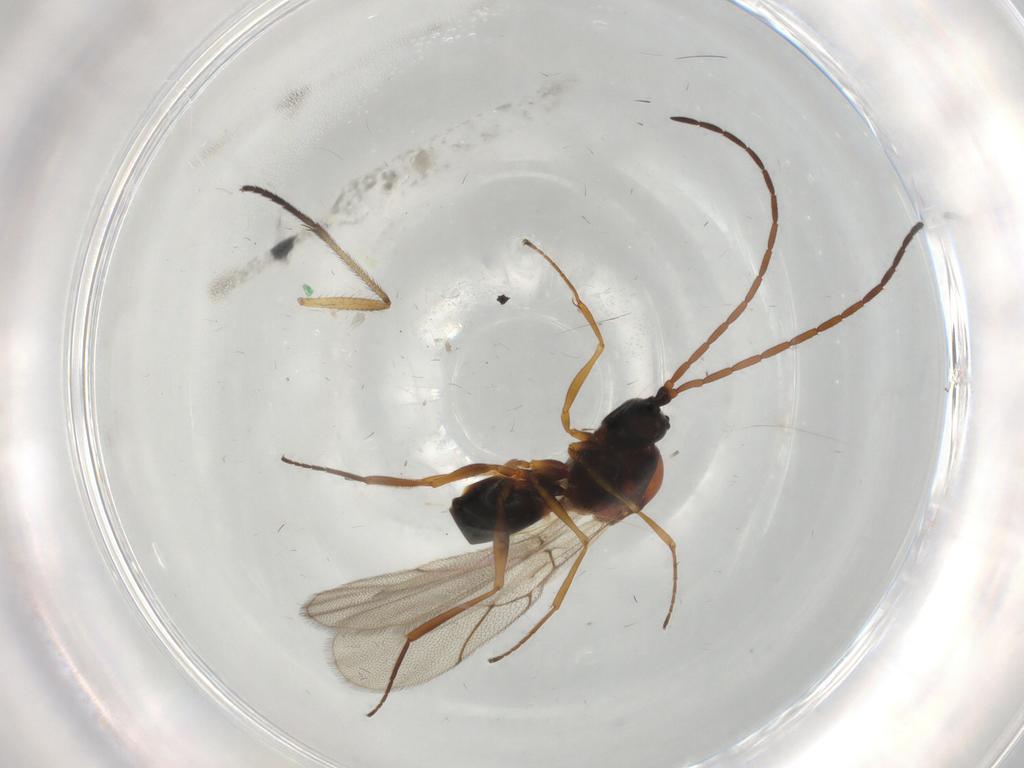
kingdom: Animalia
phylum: Arthropoda
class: Insecta
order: Hymenoptera
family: Figitidae
